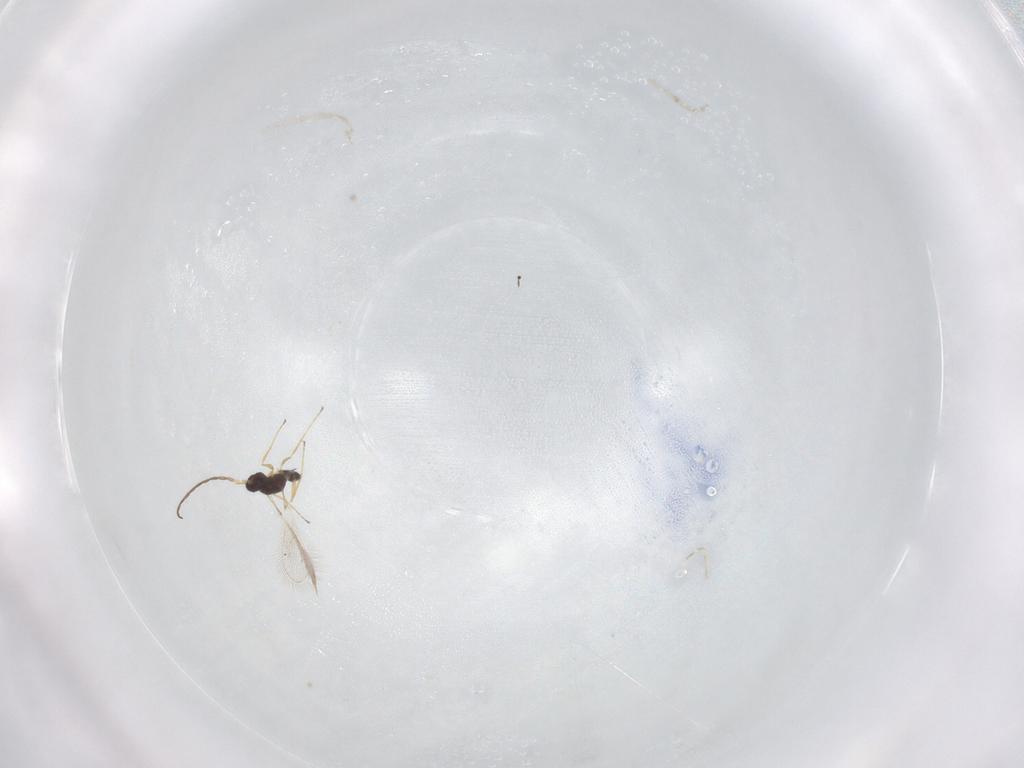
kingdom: Animalia
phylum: Arthropoda
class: Insecta
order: Hymenoptera
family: Mymaridae
